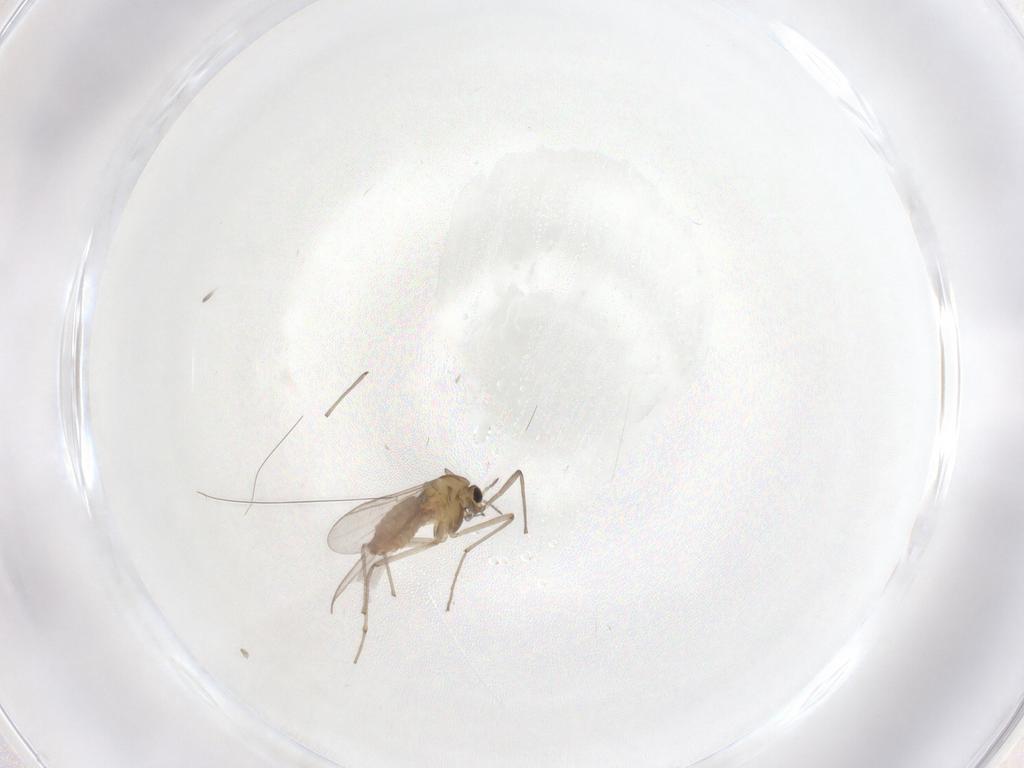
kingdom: Animalia
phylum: Arthropoda
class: Insecta
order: Diptera
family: Chironomidae
